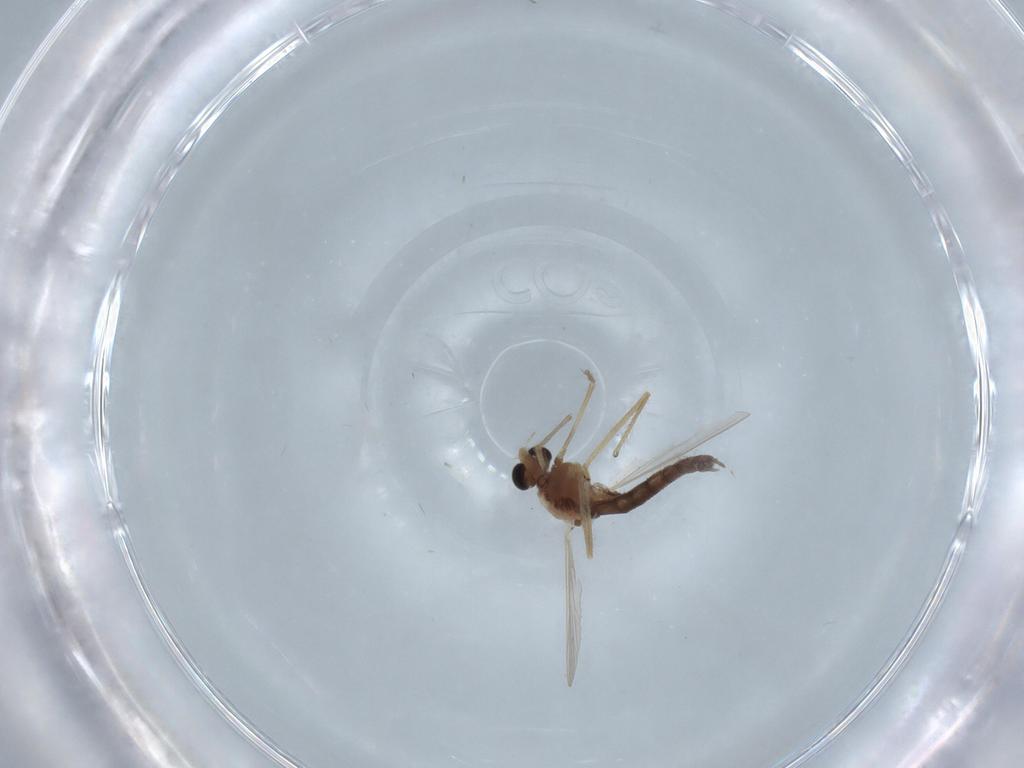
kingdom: Animalia
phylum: Arthropoda
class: Insecta
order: Diptera
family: Chironomidae
